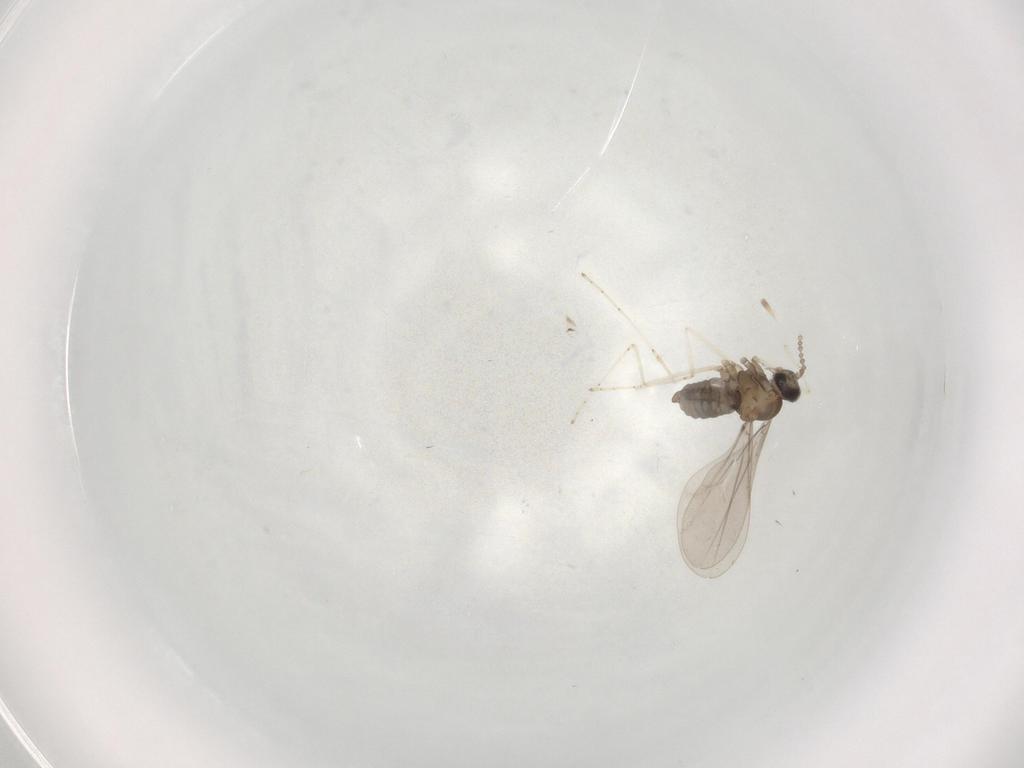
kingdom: Animalia
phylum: Arthropoda
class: Insecta
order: Diptera
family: Cecidomyiidae
